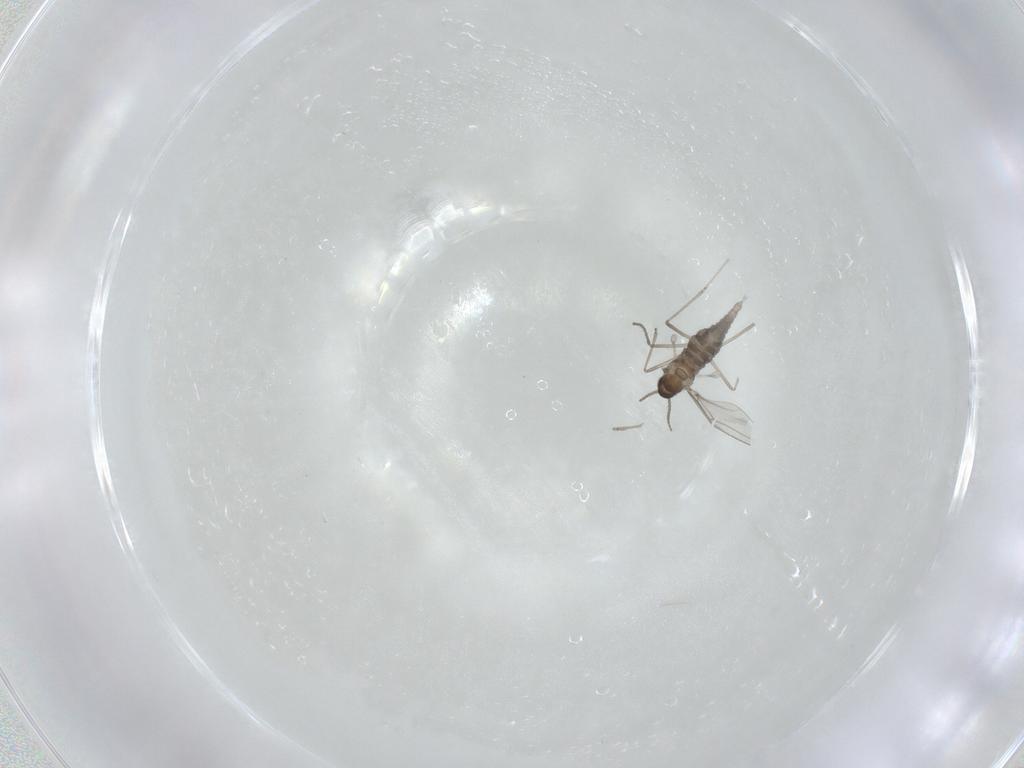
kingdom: Animalia
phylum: Arthropoda
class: Insecta
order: Diptera
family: Cecidomyiidae
